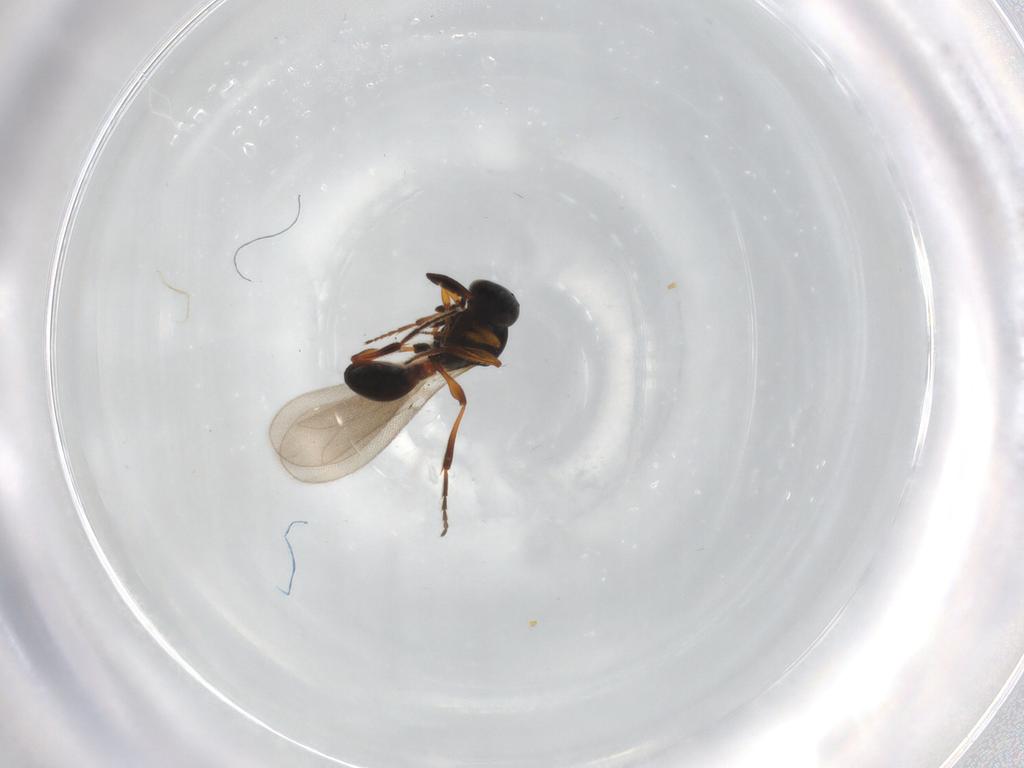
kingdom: Animalia
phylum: Arthropoda
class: Insecta
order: Hymenoptera
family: Platygastridae
